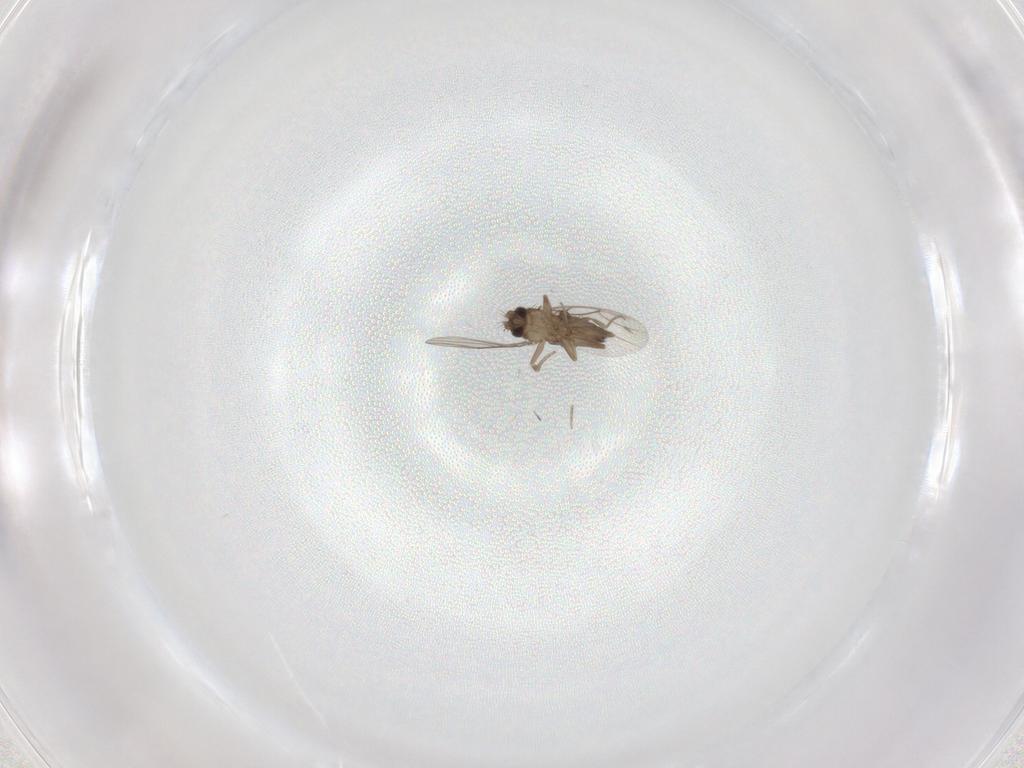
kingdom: Animalia
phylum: Arthropoda
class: Insecta
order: Diptera
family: Phoridae
